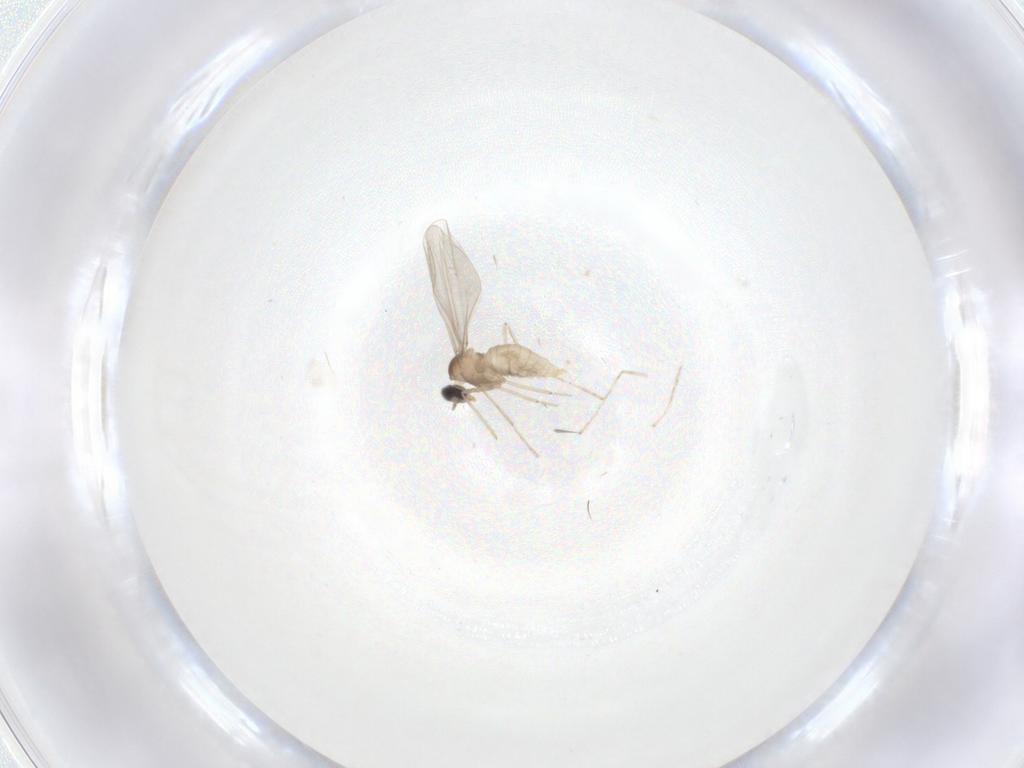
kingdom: Animalia
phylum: Arthropoda
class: Insecta
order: Diptera
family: Cecidomyiidae
